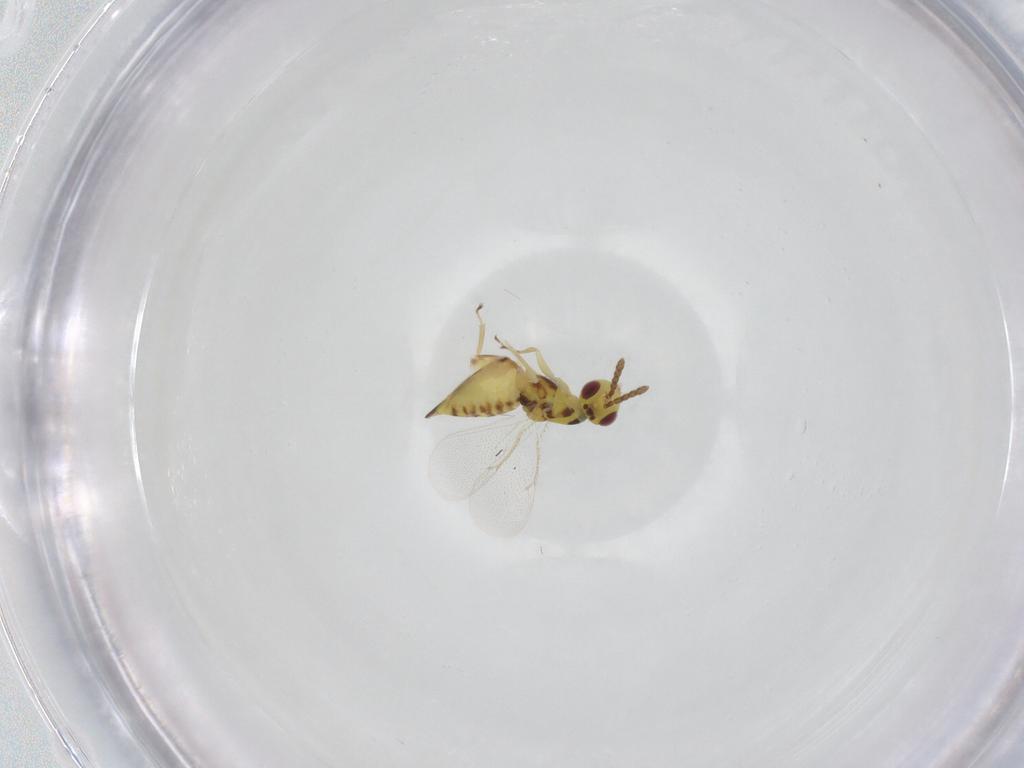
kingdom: Animalia
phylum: Arthropoda
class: Insecta
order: Hymenoptera
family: Eulophidae
